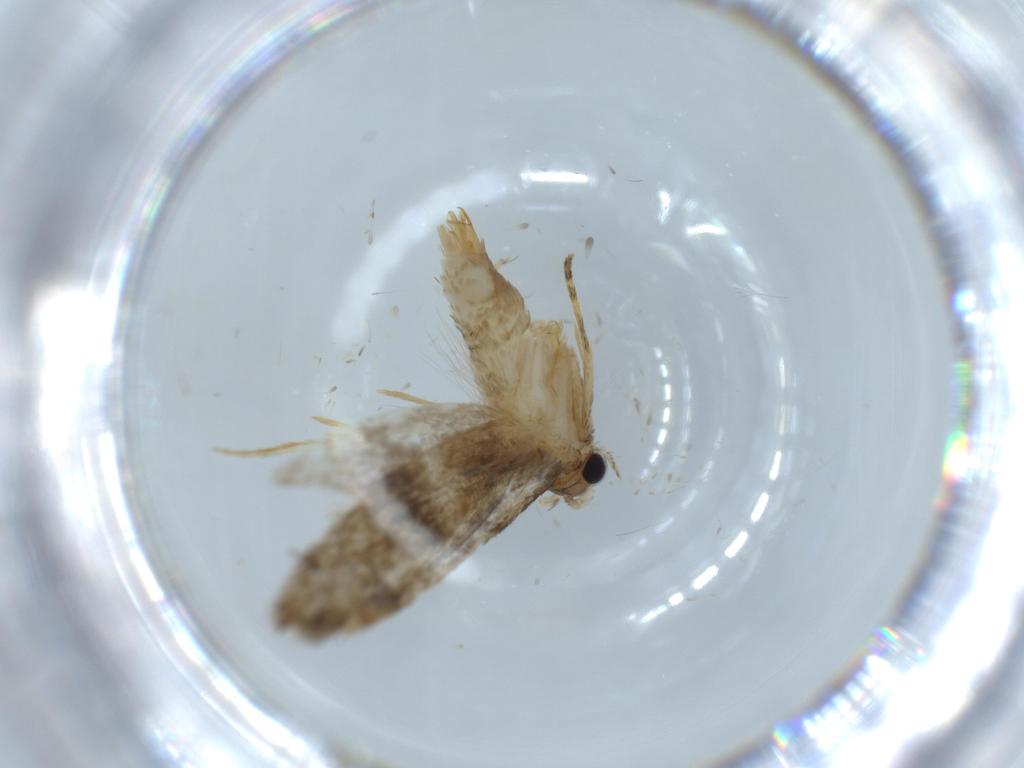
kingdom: Animalia
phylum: Arthropoda
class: Insecta
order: Lepidoptera
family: Tineidae
